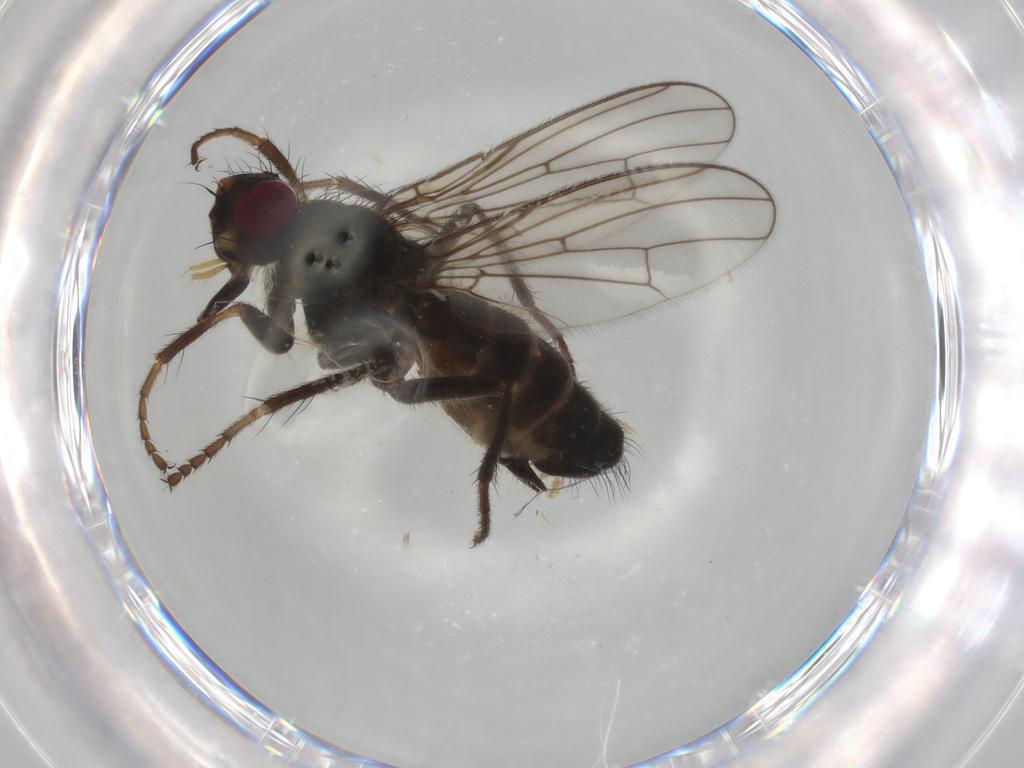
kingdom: Animalia
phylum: Arthropoda
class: Insecta
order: Diptera
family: Scathophagidae
